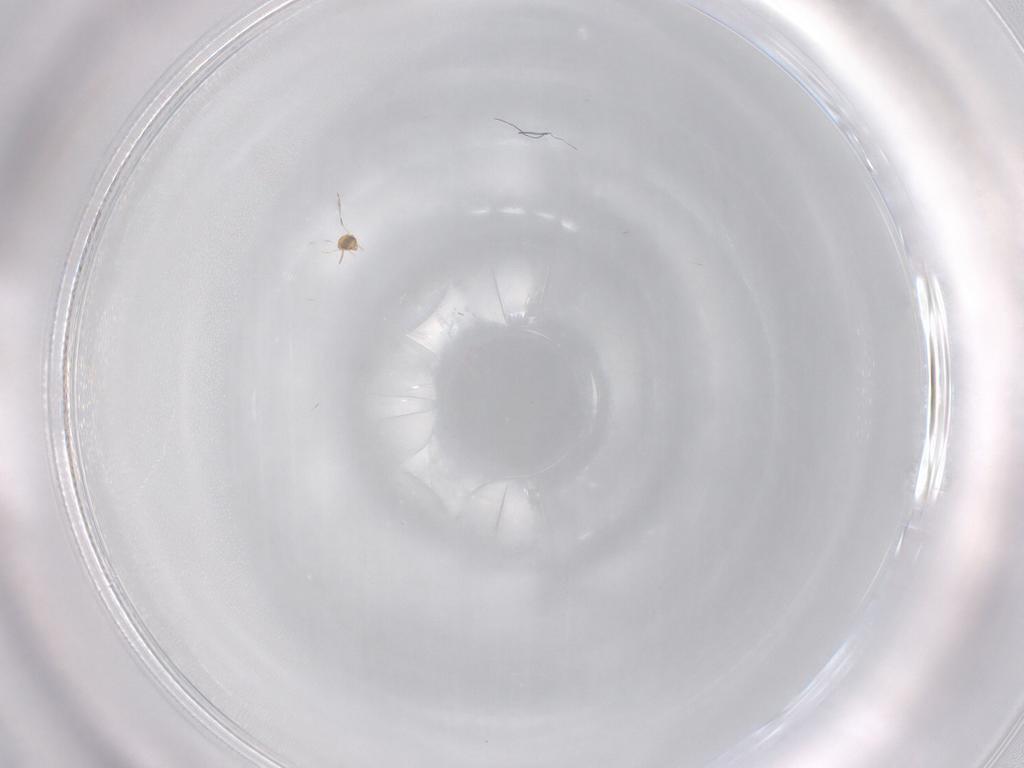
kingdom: Animalia
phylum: Arthropoda
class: Insecta
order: Hymenoptera
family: Trichogrammatidae
